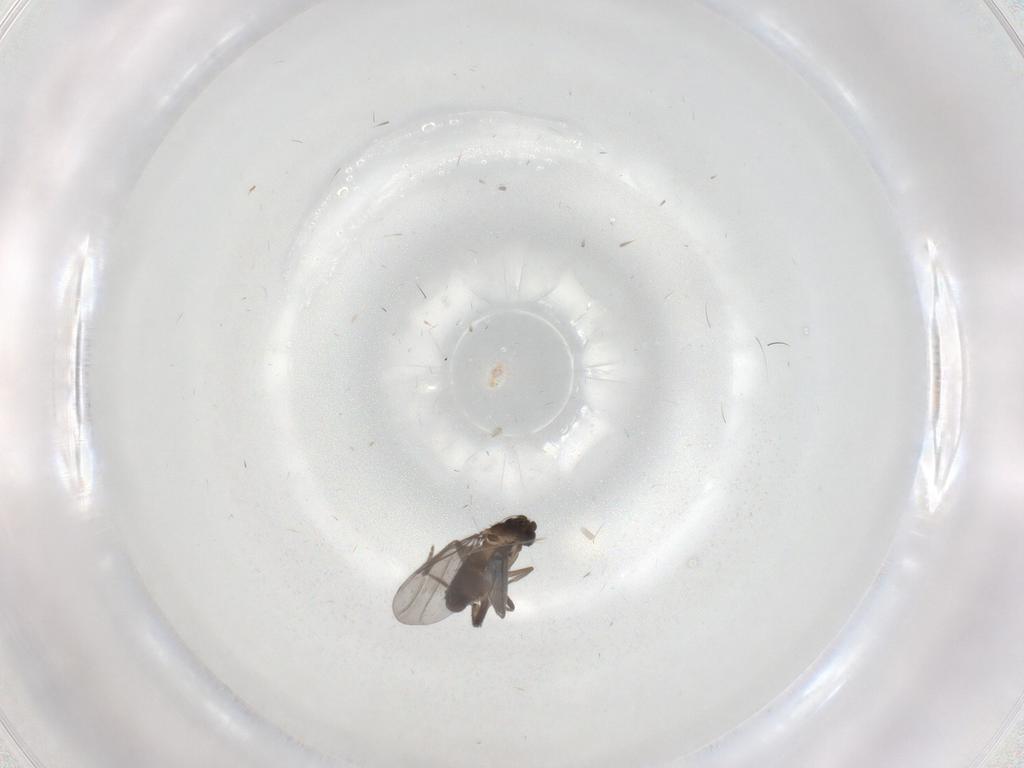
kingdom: Animalia
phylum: Arthropoda
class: Insecta
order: Diptera
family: Phoridae
